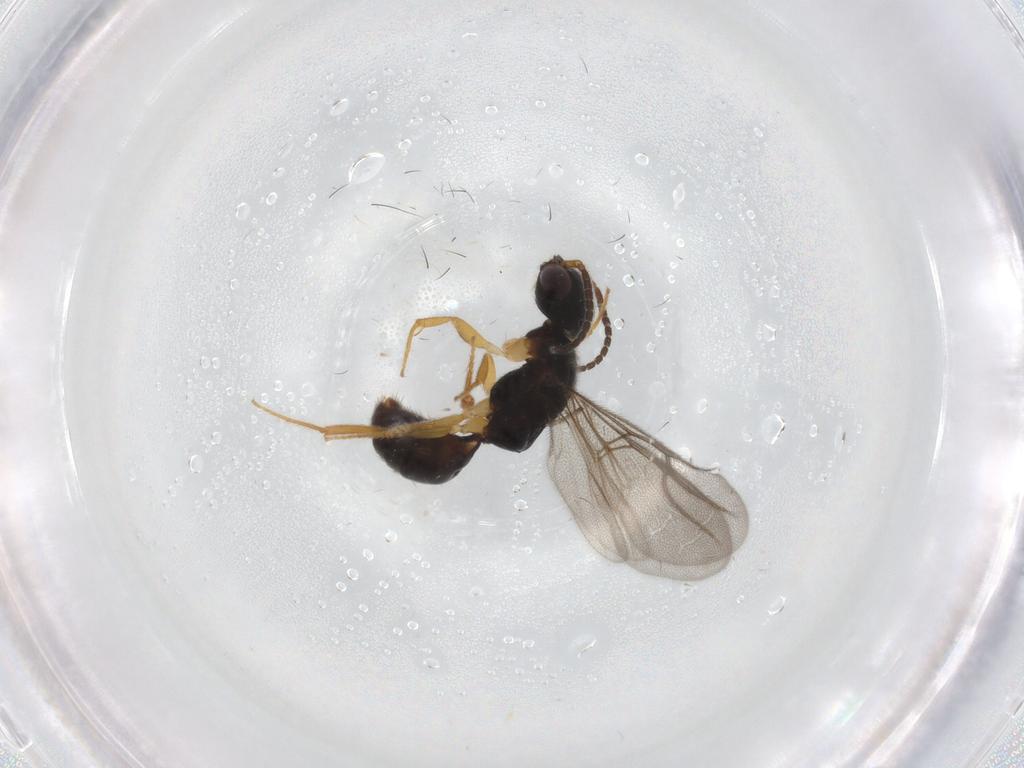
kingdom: Animalia
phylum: Arthropoda
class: Insecta
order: Hymenoptera
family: Bethylidae
